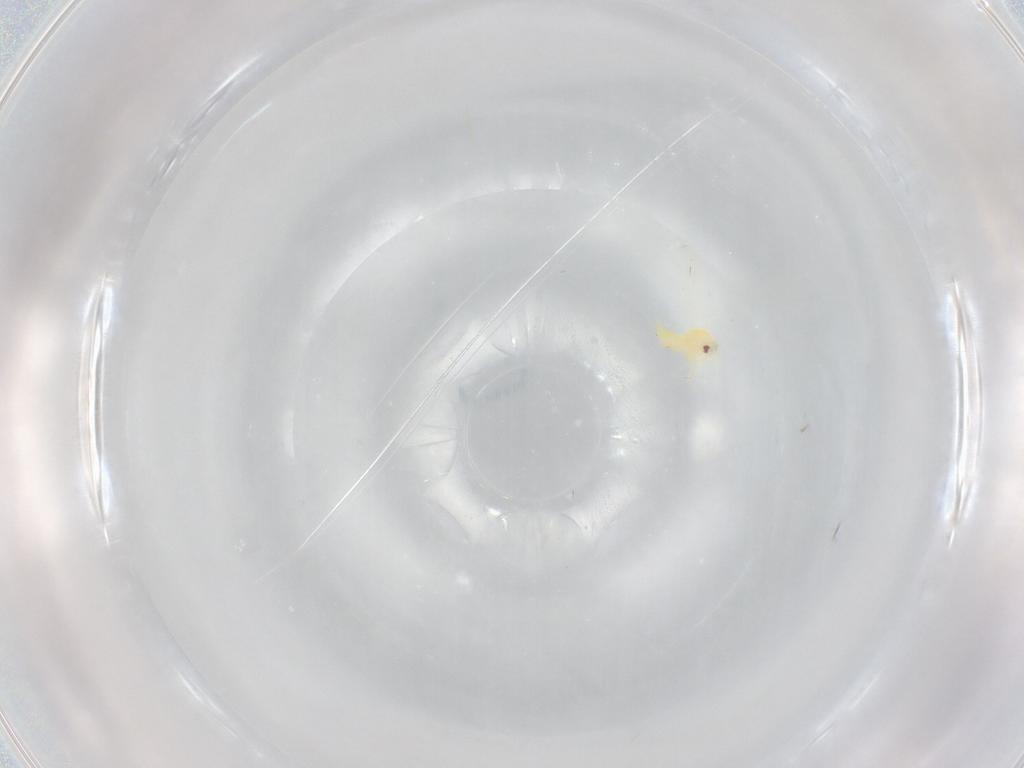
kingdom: Animalia
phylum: Arthropoda
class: Insecta
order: Hemiptera
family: Aleyrodidae
